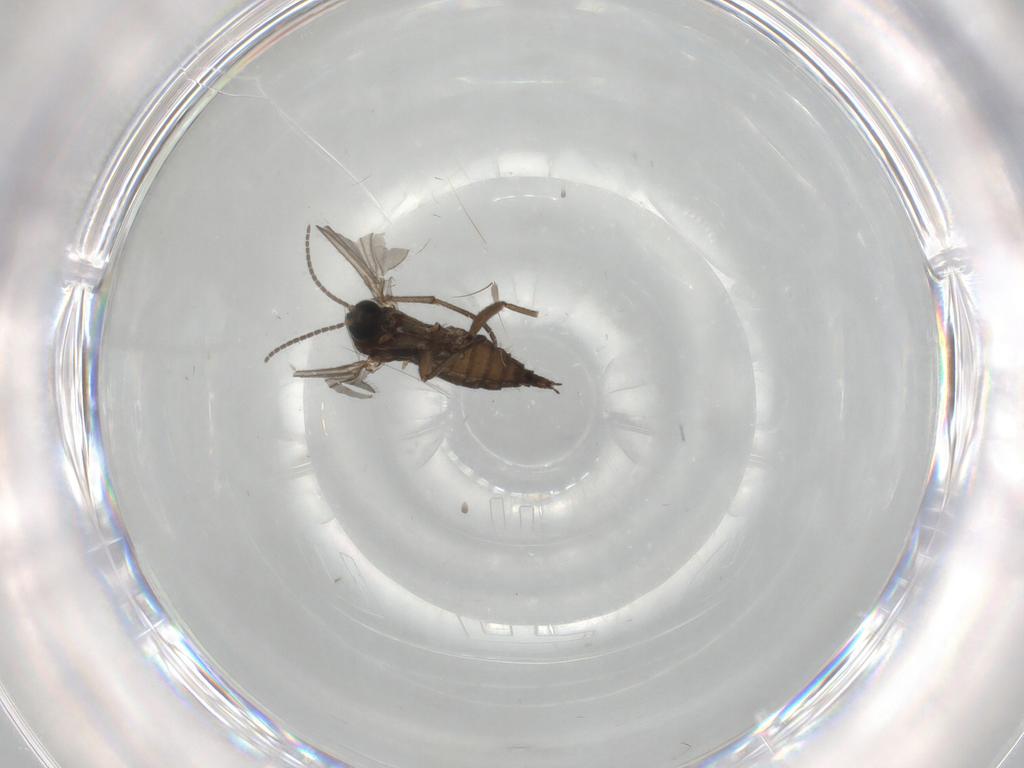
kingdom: Animalia
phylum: Arthropoda
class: Insecta
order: Diptera
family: Sciaridae
